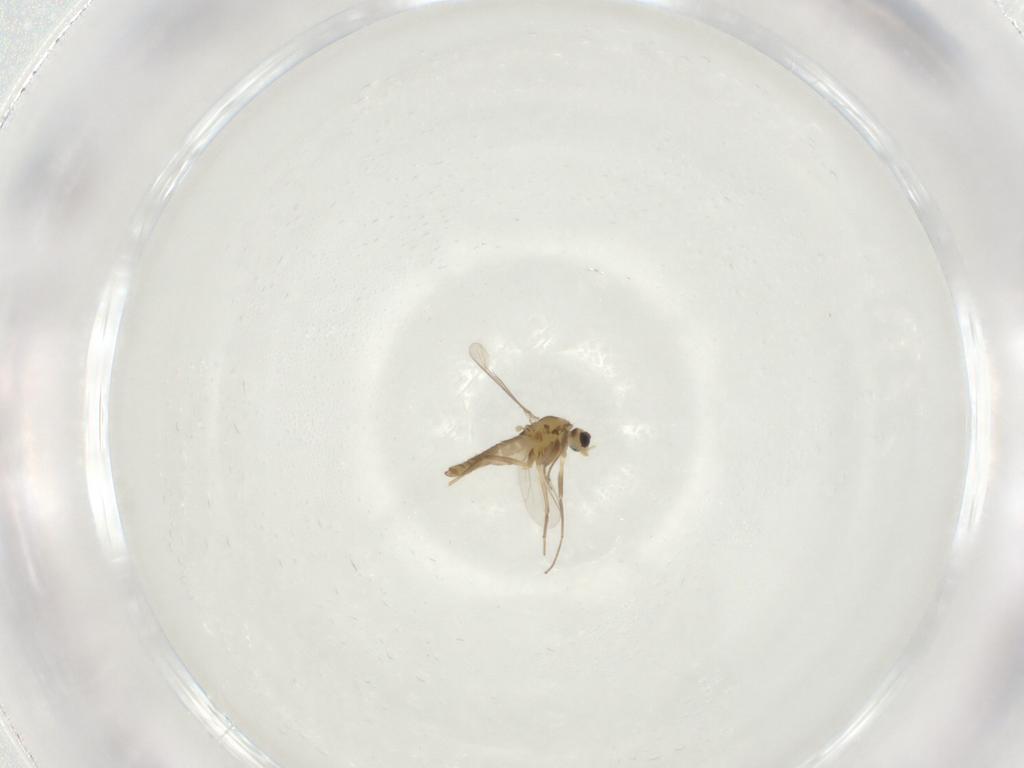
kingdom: Animalia
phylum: Arthropoda
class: Insecta
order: Diptera
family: Chironomidae
